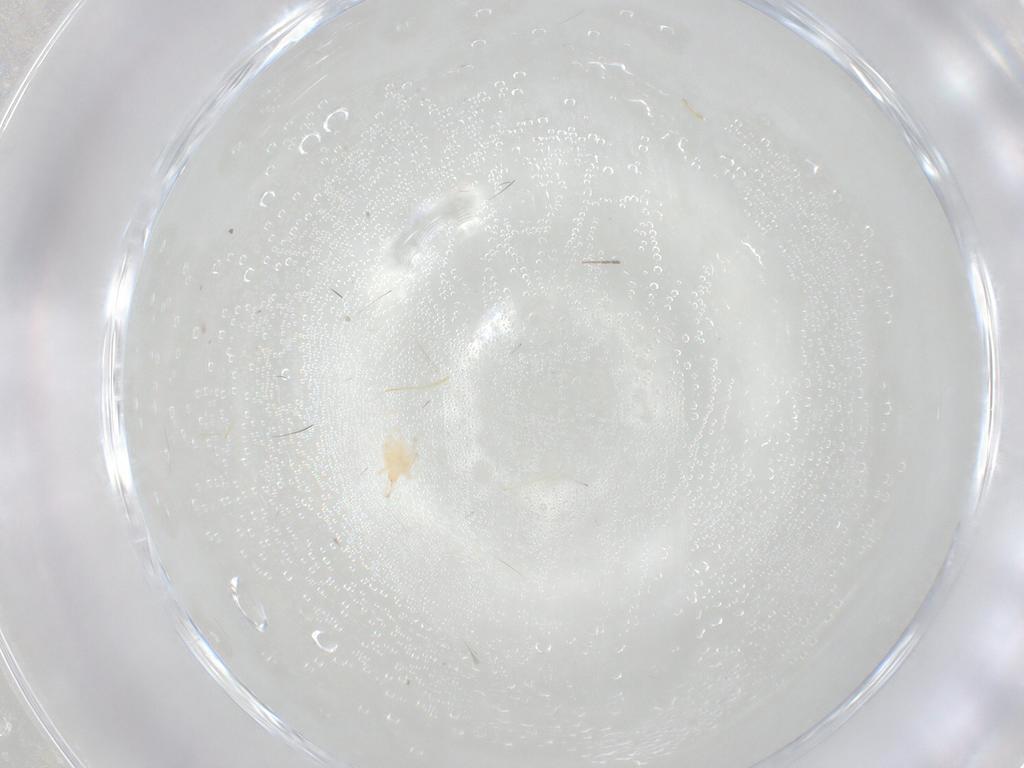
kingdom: Animalia
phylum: Arthropoda
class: Arachnida
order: Trombidiformes
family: Cunaxidae
